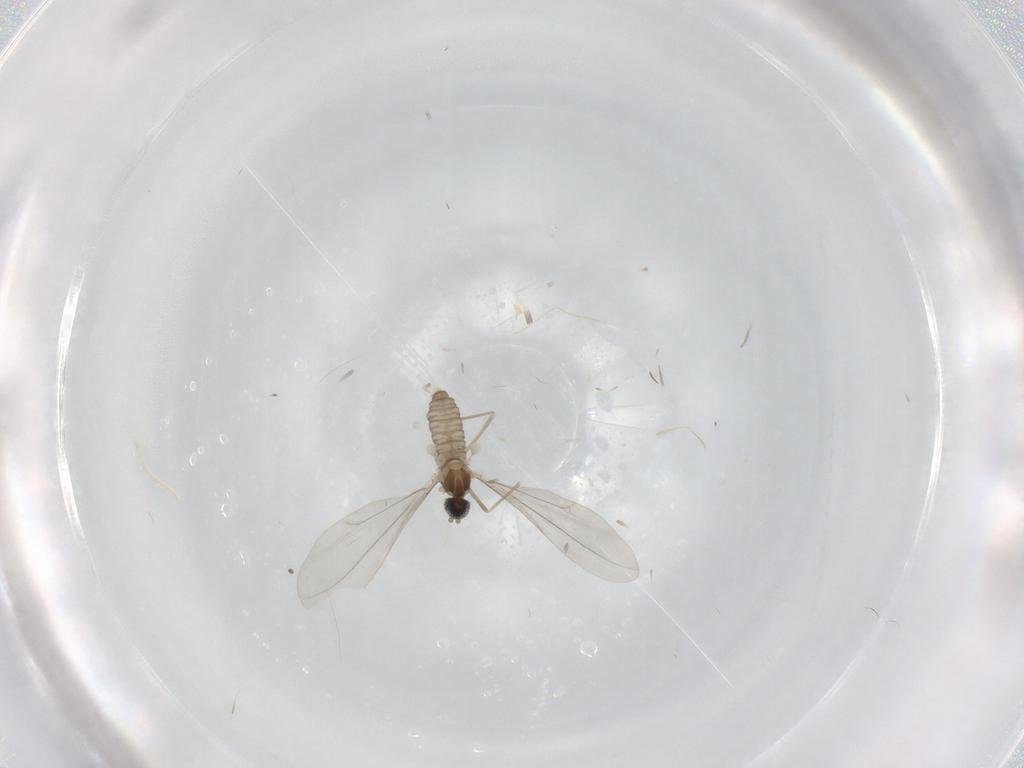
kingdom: Animalia
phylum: Arthropoda
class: Insecta
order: Diptera
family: Cecidomyiidae
